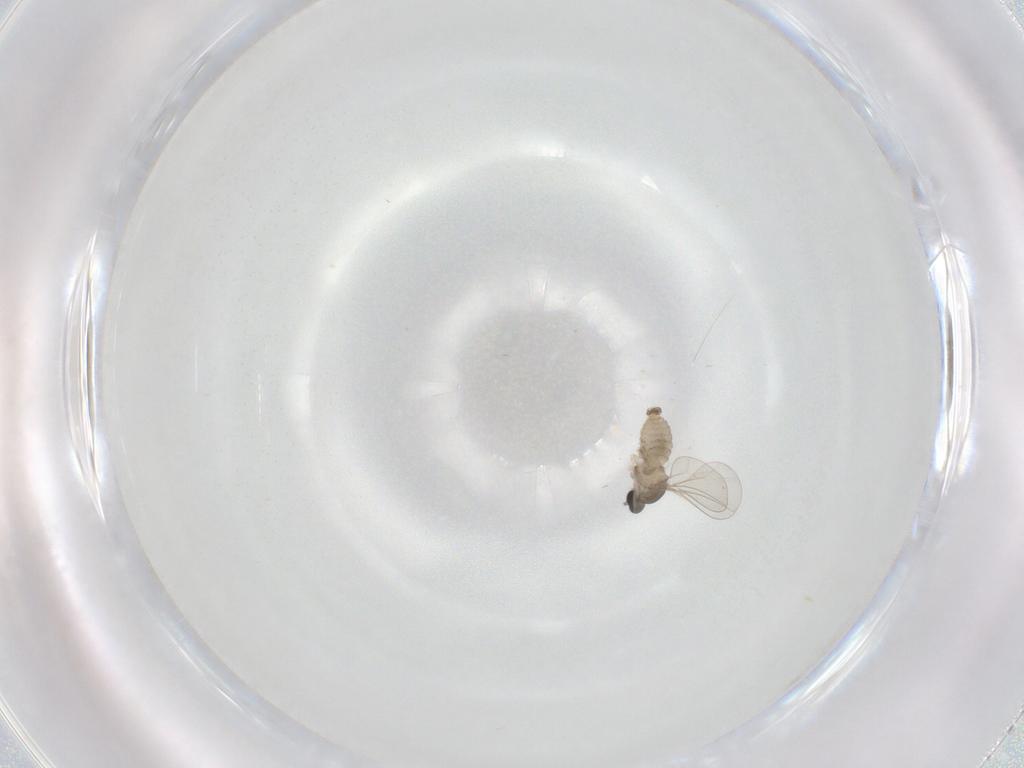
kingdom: Animalia
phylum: Arthropoda
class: Insecta
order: Diptera
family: Cecidomyiidae
